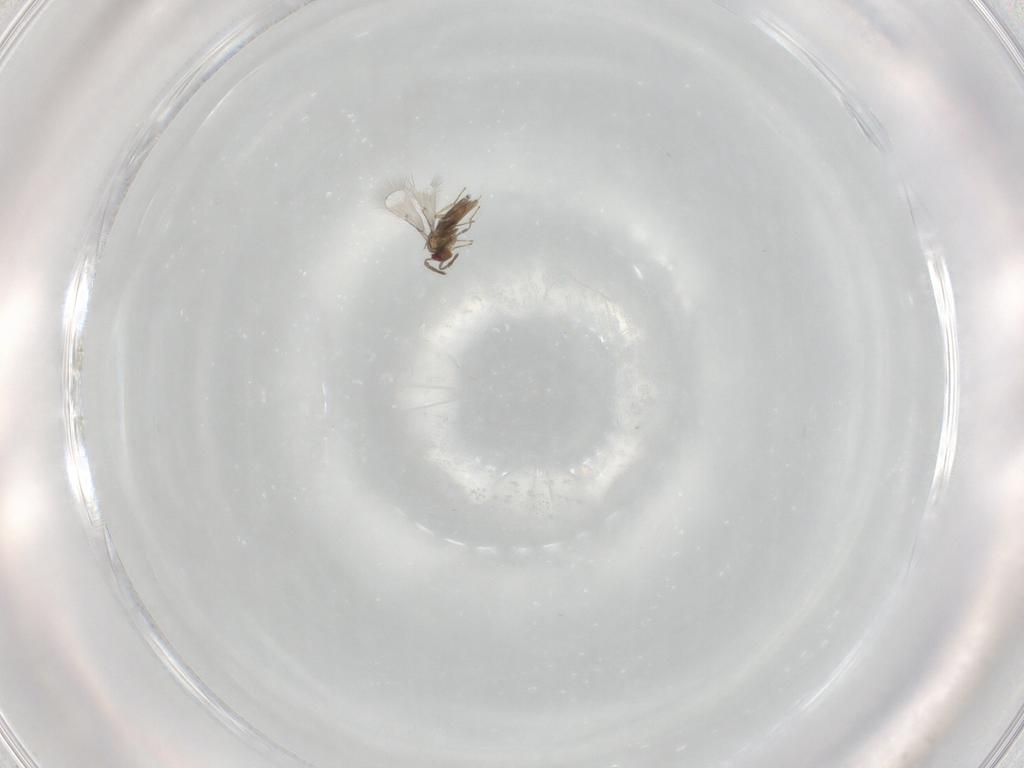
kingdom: Animalia
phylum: Arthropoda
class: Insecta
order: Hymenoptera
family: Trichogrammatidae
